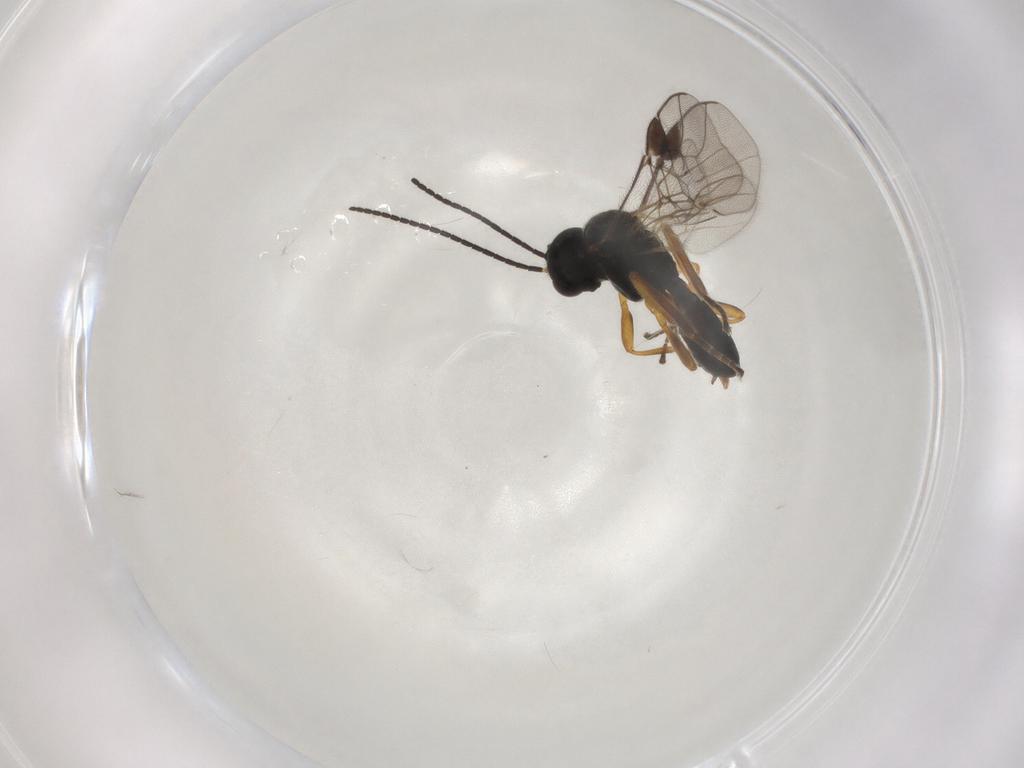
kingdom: Animalia
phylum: Arthropoda
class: Insecta
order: Hymenoptera
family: Braconidae
